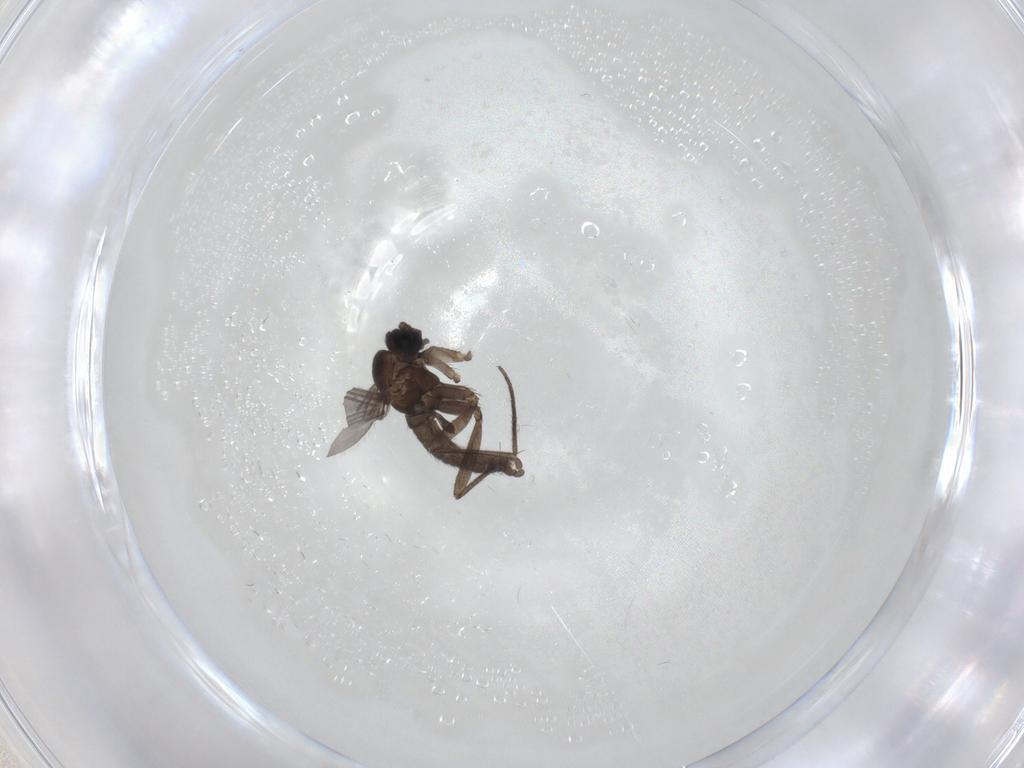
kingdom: Animalia
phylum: Arthropoda
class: Insecta
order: Diptera
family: Sciaridae
